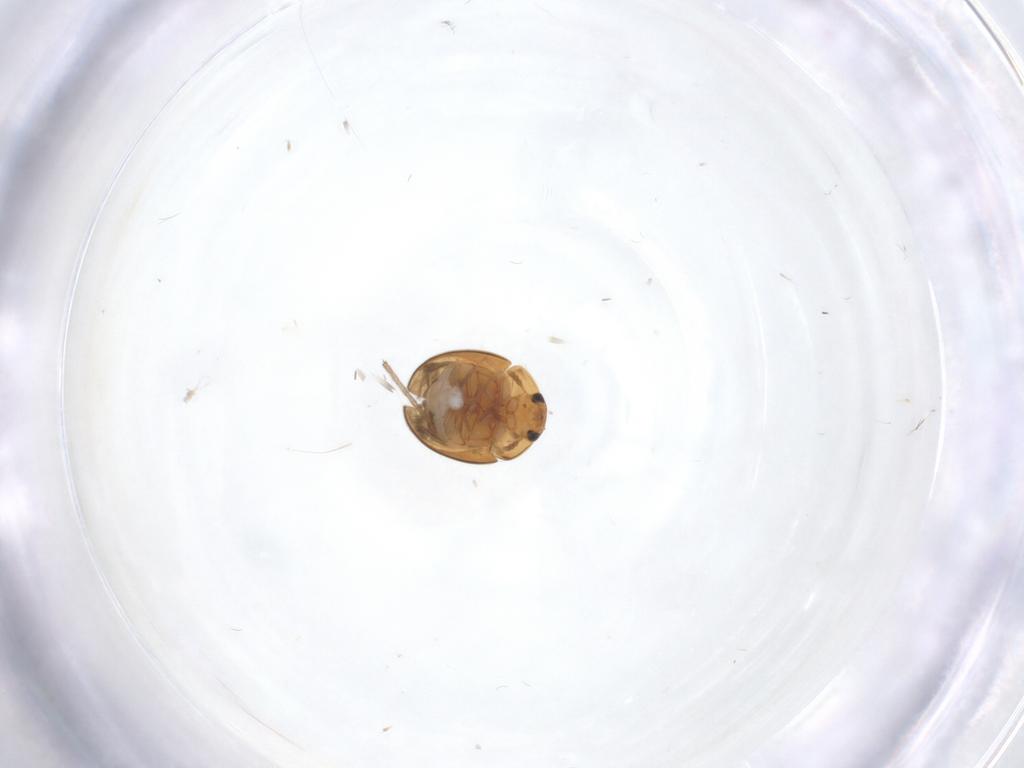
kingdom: Animalia
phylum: Arthropoda
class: Insecta
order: Coleoptera
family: Phalacridae
